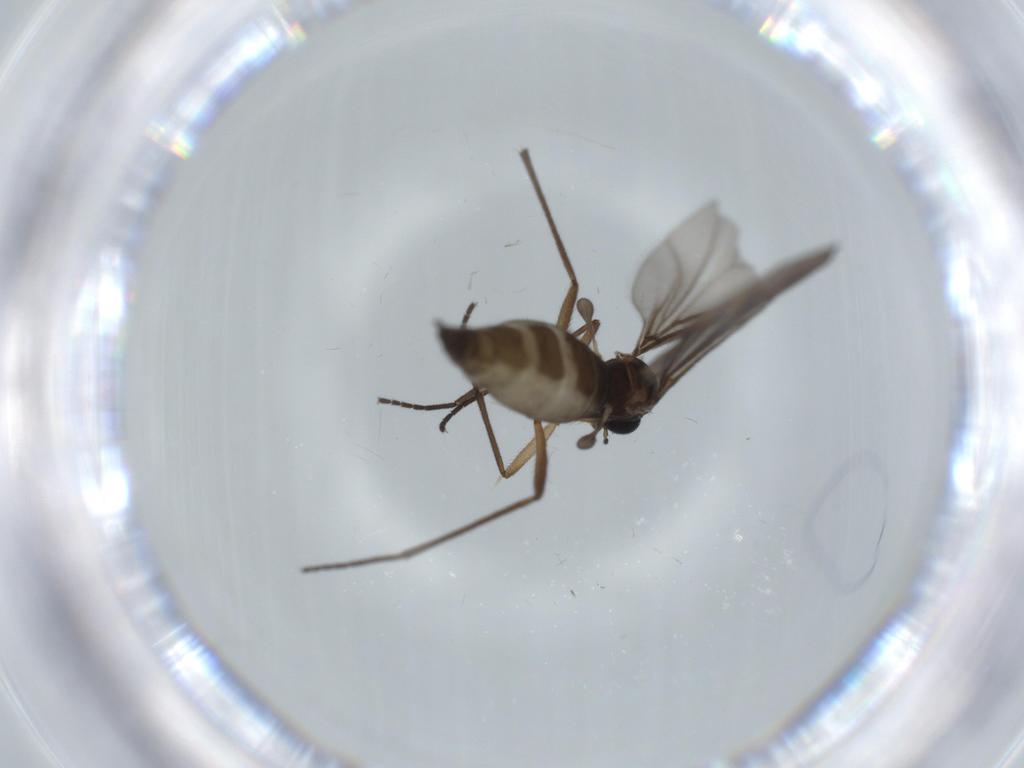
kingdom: Animalia
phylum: Arthropoda
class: Insecta
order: Diptera
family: Sciaridae
